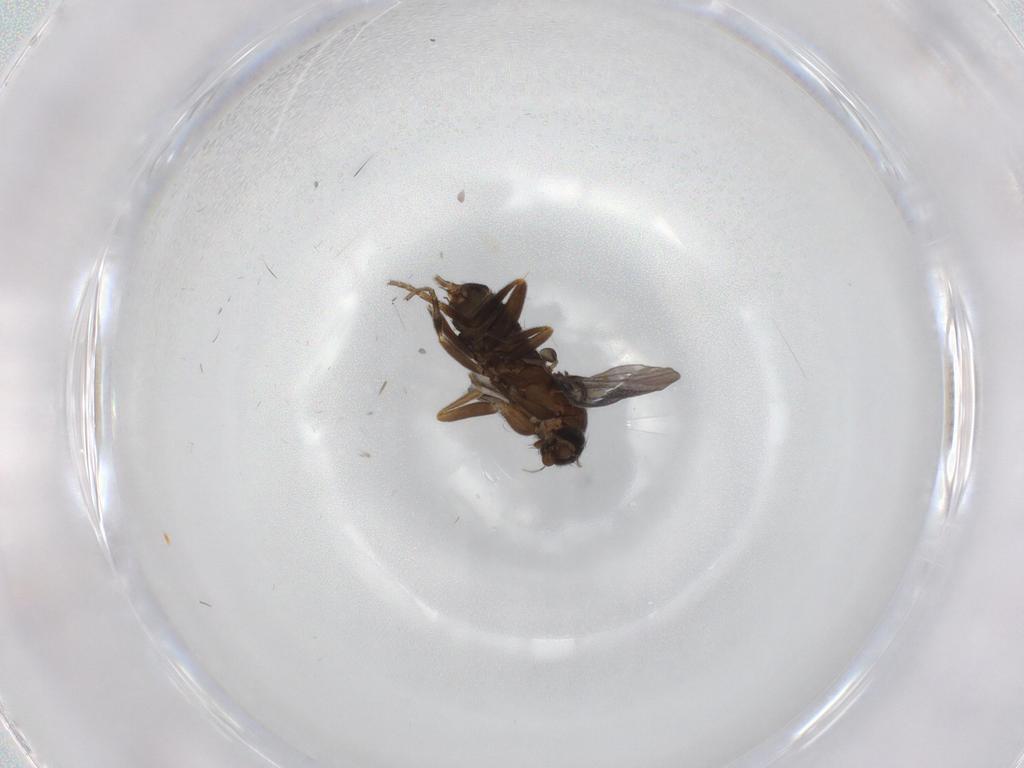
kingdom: Animalia
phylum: Arthropoda
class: Insecta
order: Diptera
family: Phoridae
